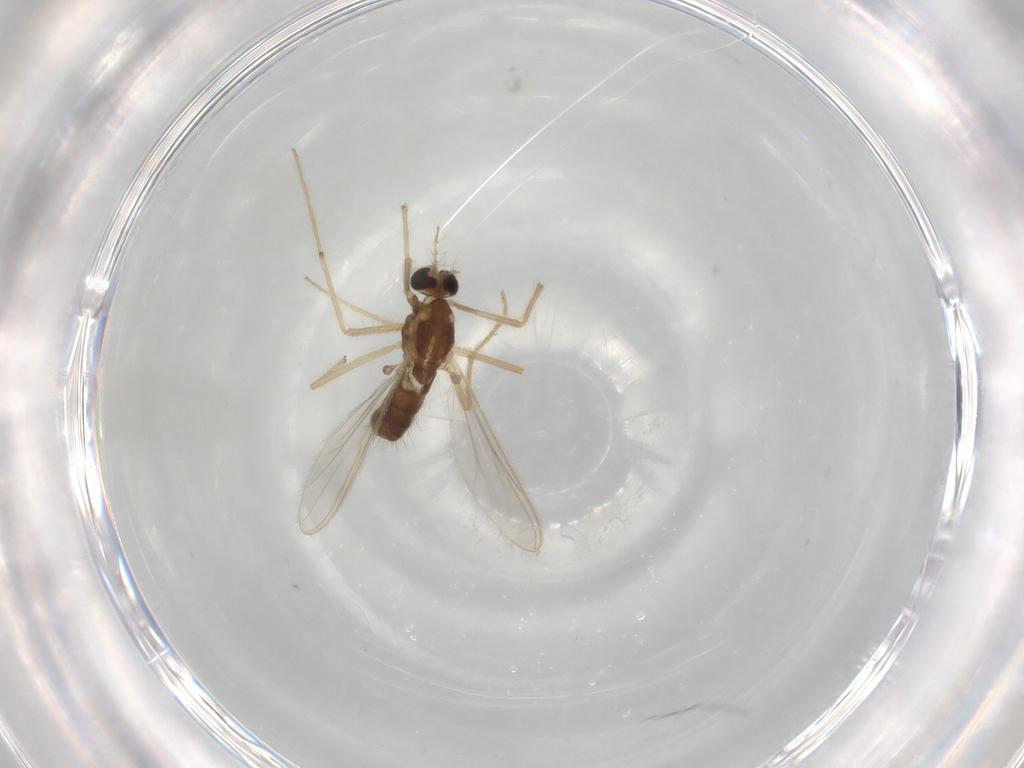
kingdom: Animalia
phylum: Arthropoda
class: Insecta
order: Diptera
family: Chironomidae
